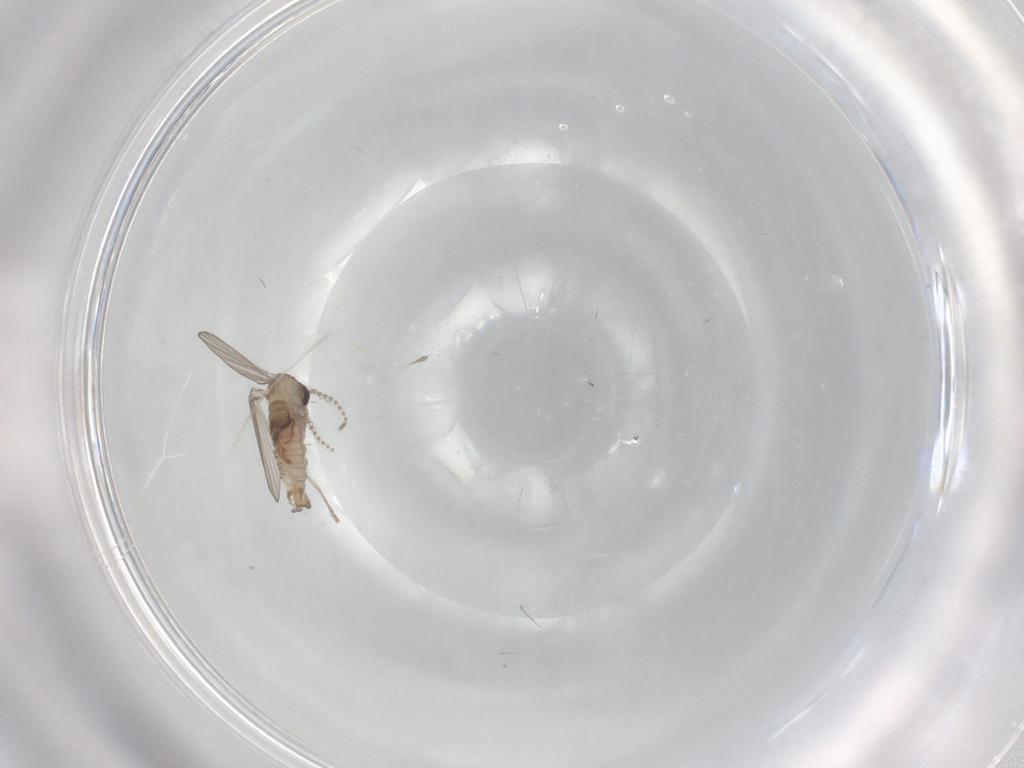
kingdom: Animalia
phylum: Arthropoda
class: Insecta
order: Diptera
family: Psychodidae
